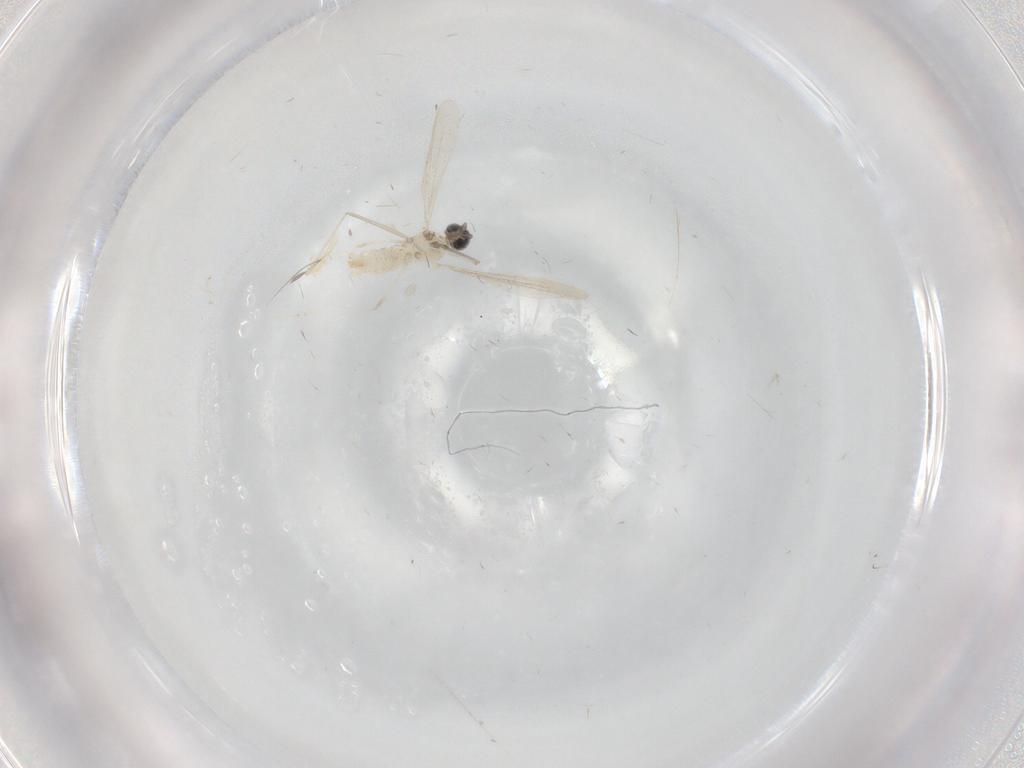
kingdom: Animalia
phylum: Arthropoda
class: Insecta
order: Diptera
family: Cecidomyiidae
